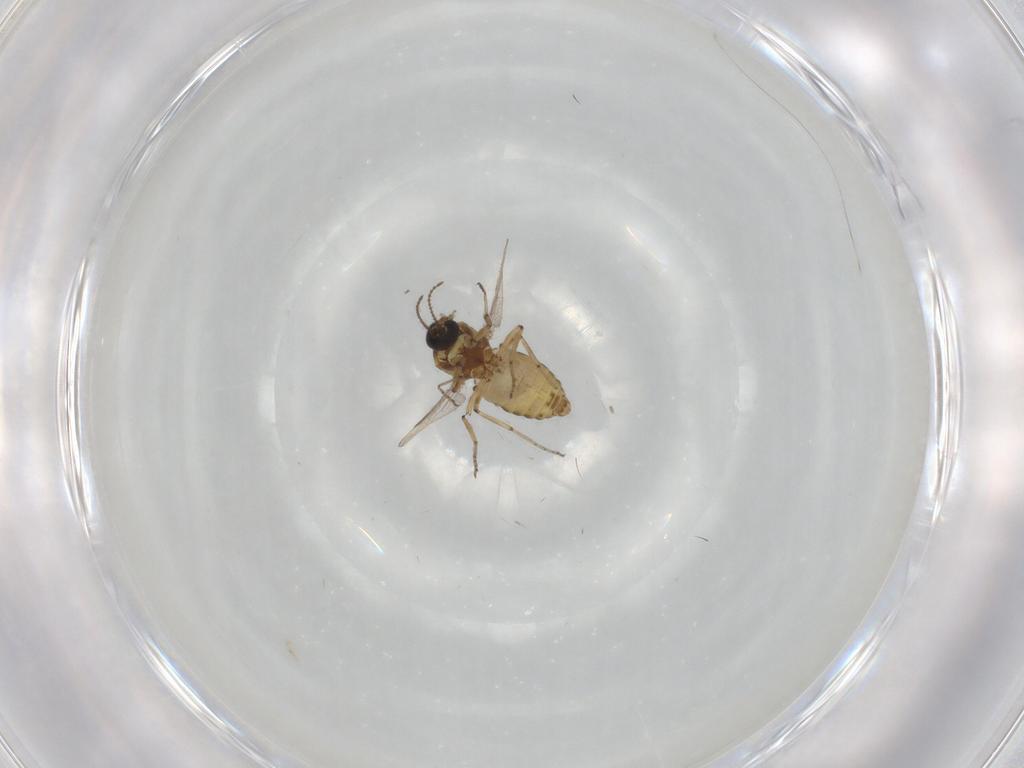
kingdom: Animalia
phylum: Arthropoda
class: Insecta
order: Diptera
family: Ceratopogonidae
